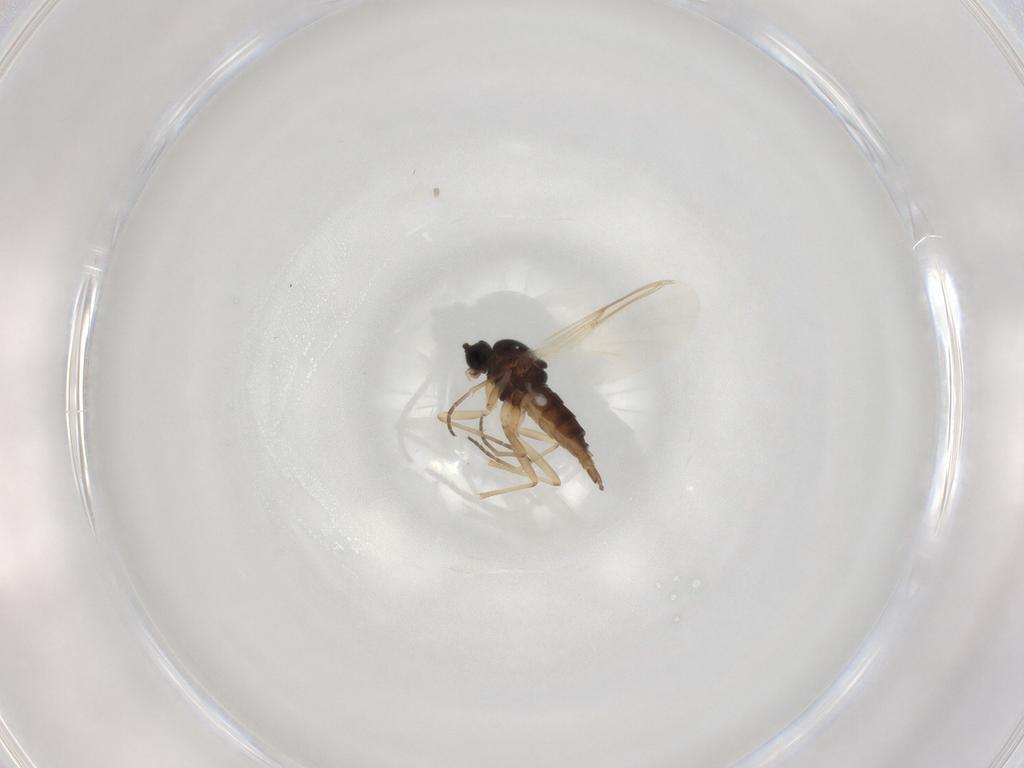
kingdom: Animalia
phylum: Arthropoda
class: Insecta
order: Diptera
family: Sciaridae
